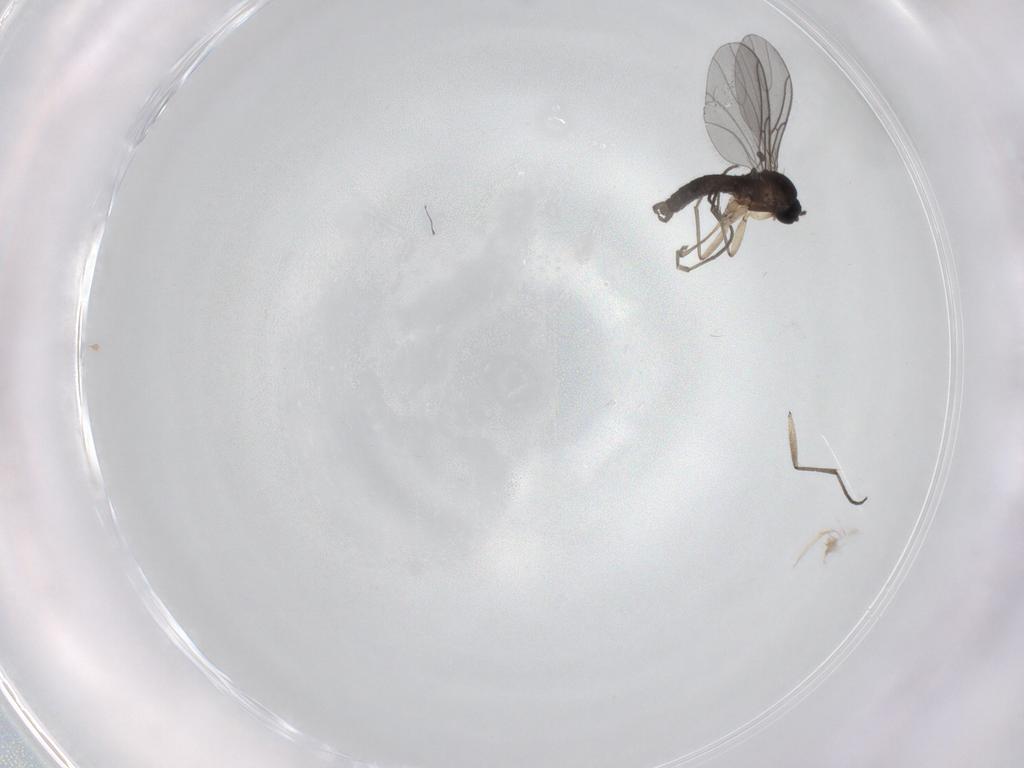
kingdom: Animalia
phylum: Arthropoda
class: Insecta
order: Diptera
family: Sciaridae
